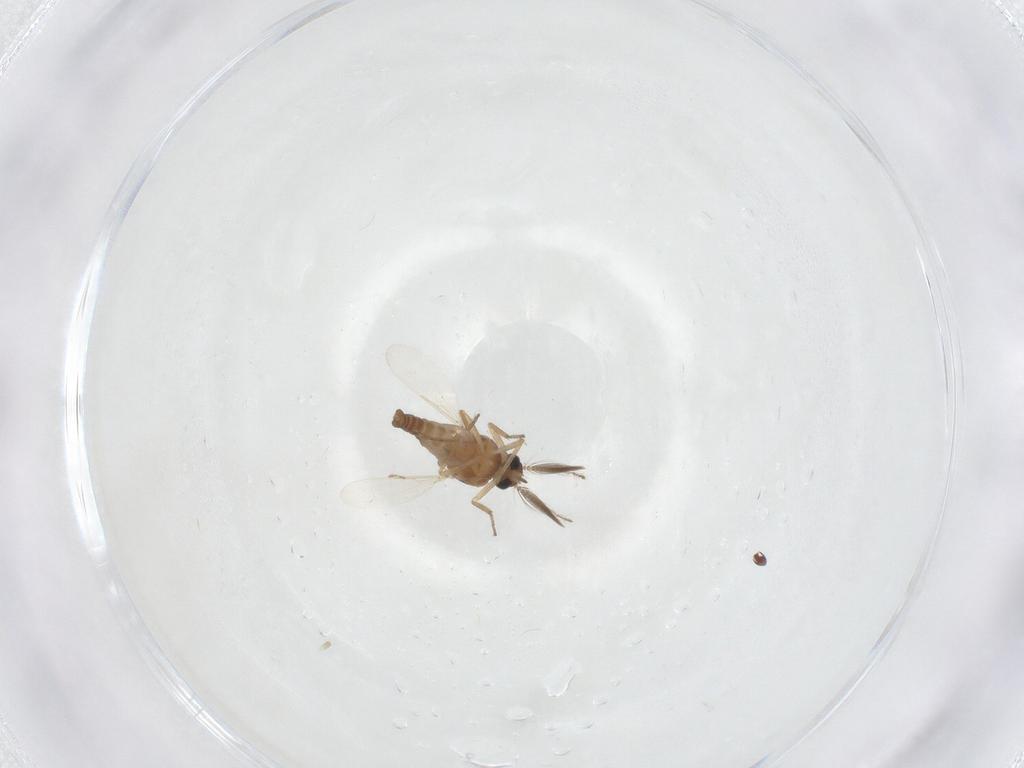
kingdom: Animalia
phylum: Arthropoda
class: Insecta
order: Diptera
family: Ceratopogonidae
